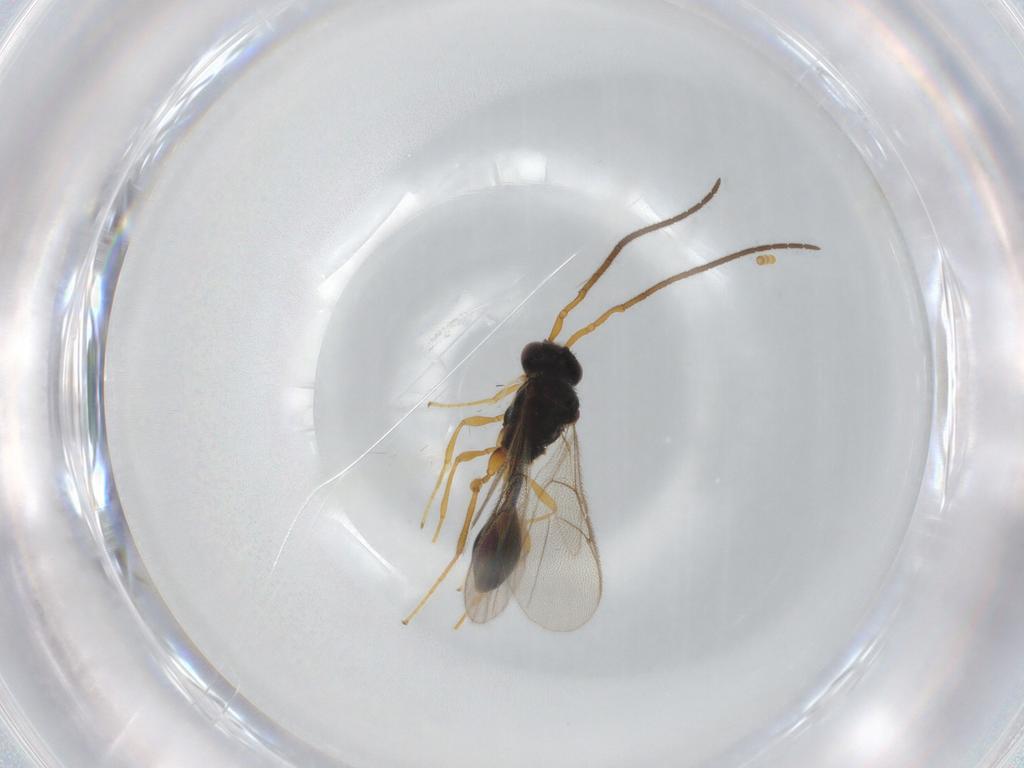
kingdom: Animalia
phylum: Arthropoda
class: Insecta
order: Hymenoptera
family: Diapriidae
